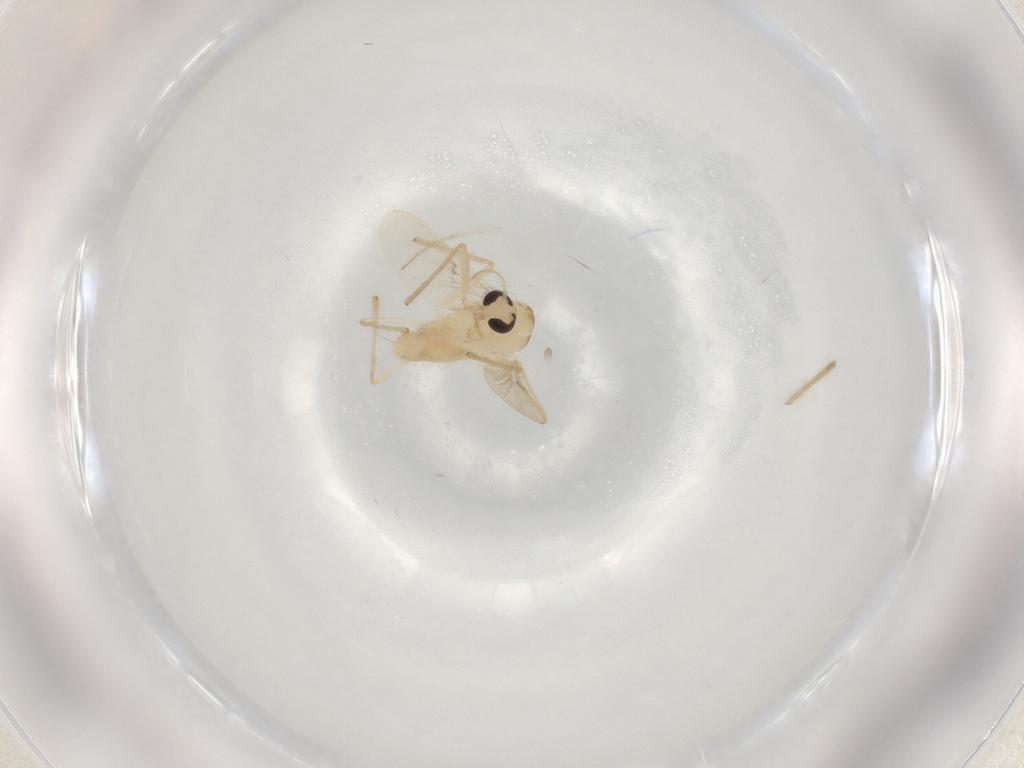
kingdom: Animalia
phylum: Arthropoda
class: Insecta
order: Diptera
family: Chironomidae
